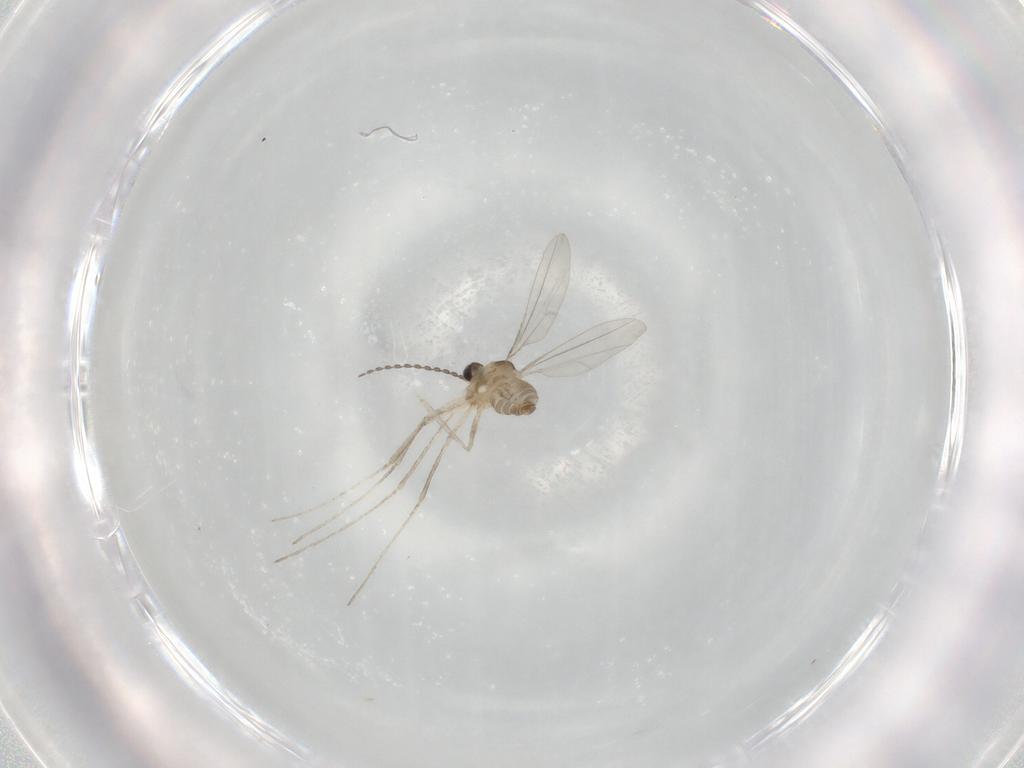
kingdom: Animalia
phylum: Arthropoda
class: Insecta
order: Diptera
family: Cecidomyiidae
